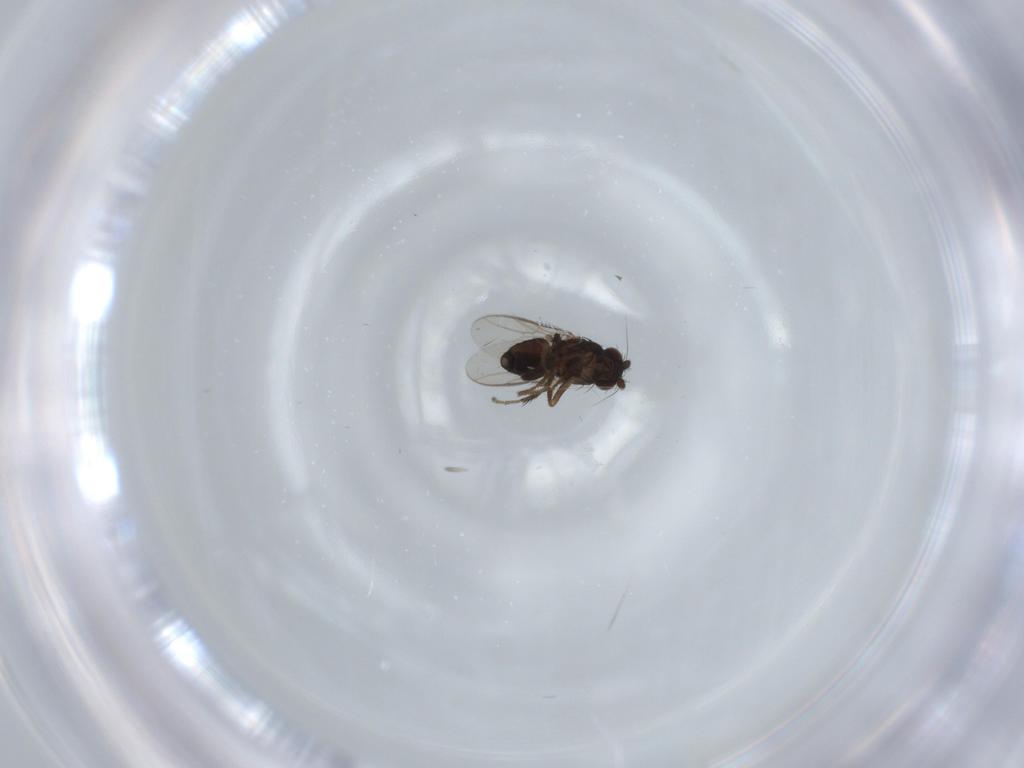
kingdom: Animalia
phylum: Arthropoda
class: Insecta
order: Diptera
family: Sphaeroceridae
